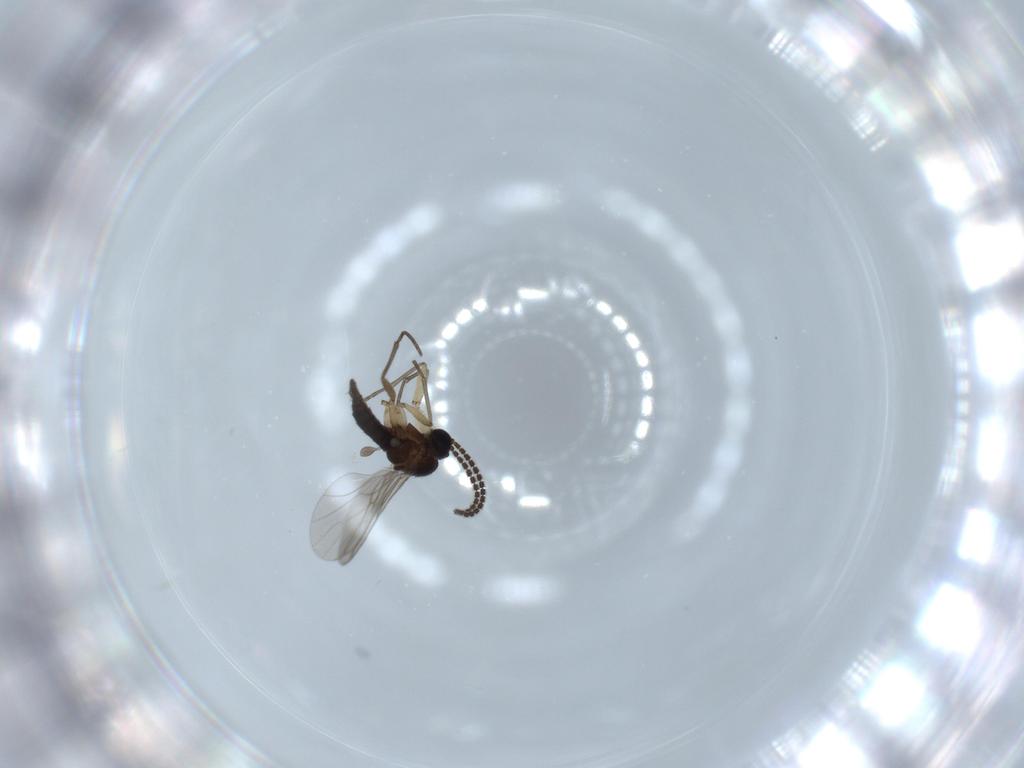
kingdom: Animalia
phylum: Arthropoda
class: Insecta
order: Diptera
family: Sciaridae
